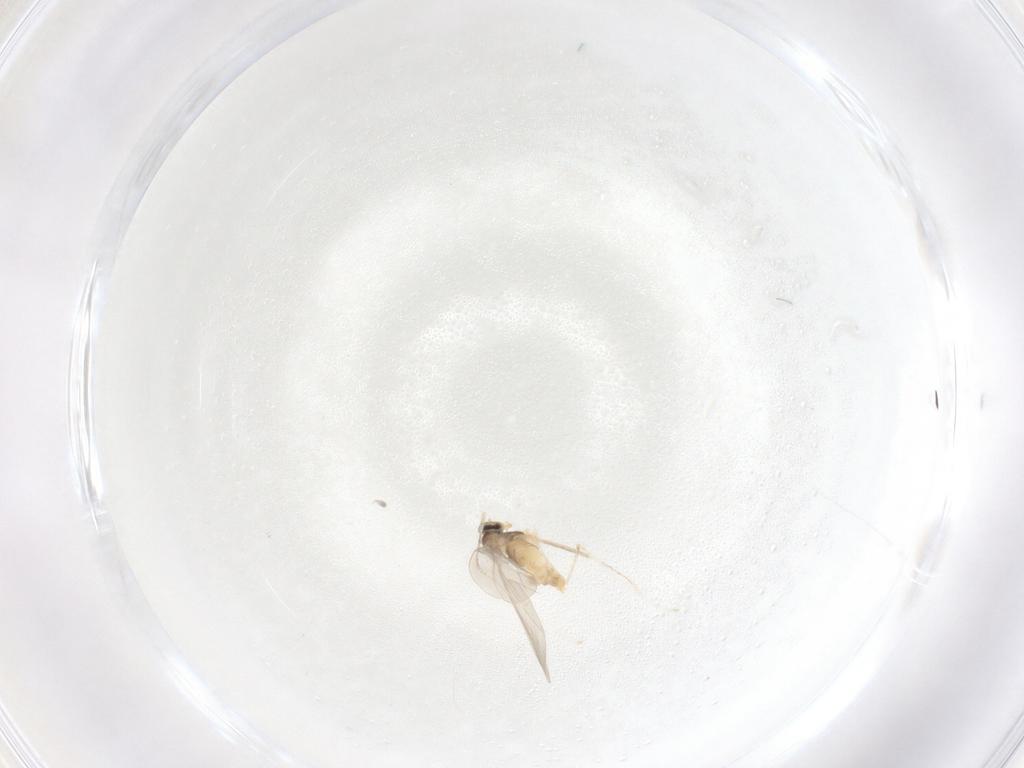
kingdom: Animalia
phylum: Arthropoda
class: Insecta
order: Diptera
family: Cecidomyiidae
